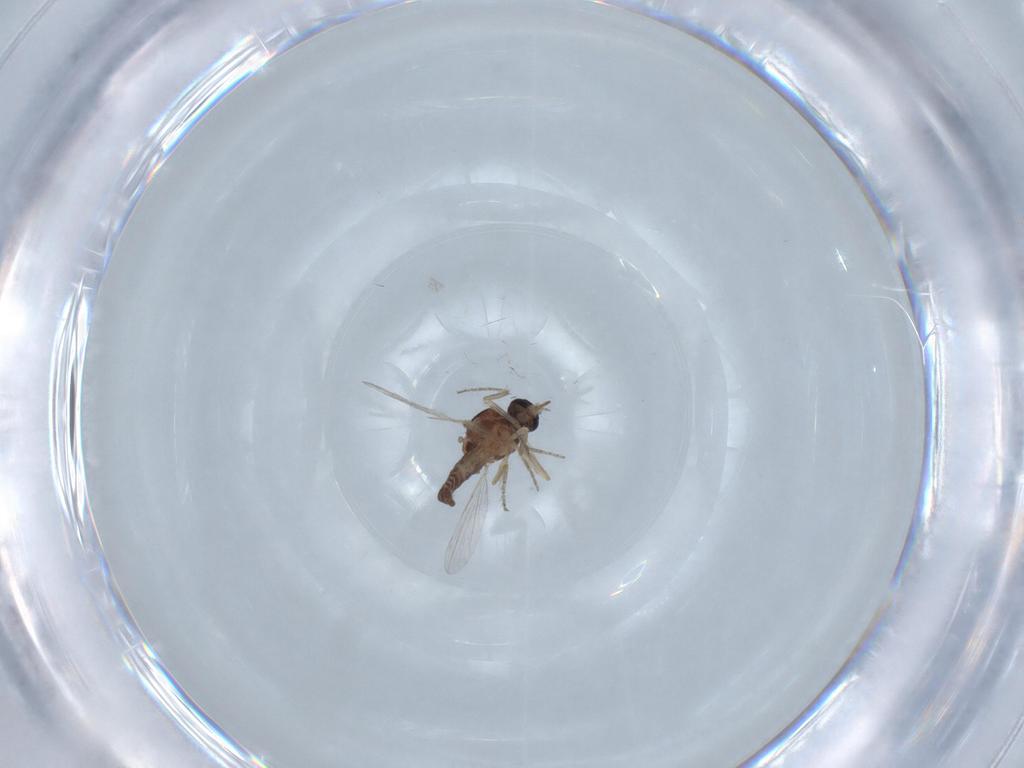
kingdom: Animalia
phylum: Arthropoda
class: Insecta
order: Diptera
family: Ceratopogonidae
